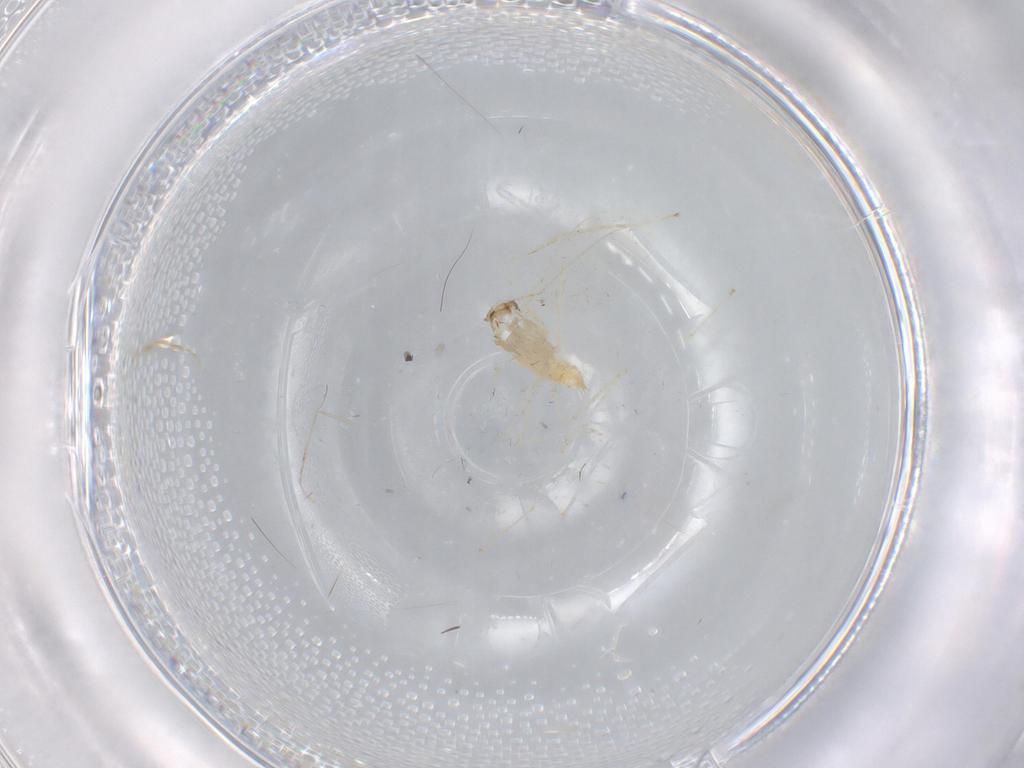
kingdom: Animalia
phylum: Arthropoda
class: Insecta
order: Diptera
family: Cecidomyiidae
